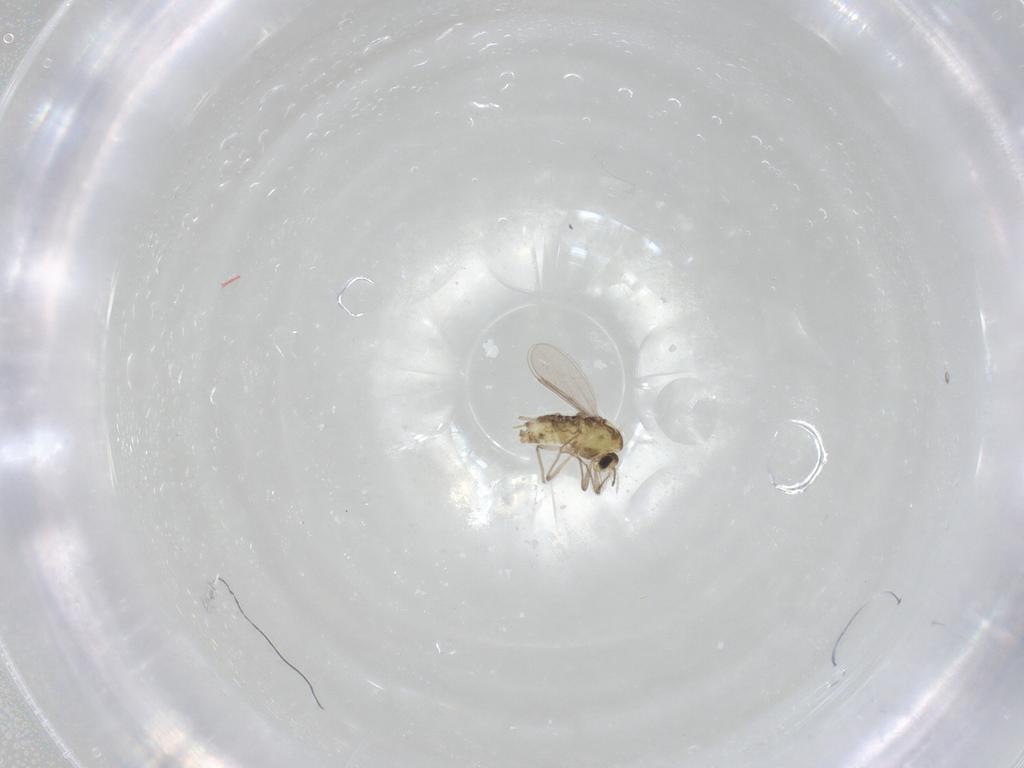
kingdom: Animalia
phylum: Arthropoda
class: Insecta
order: Diptera
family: Chironomidae
